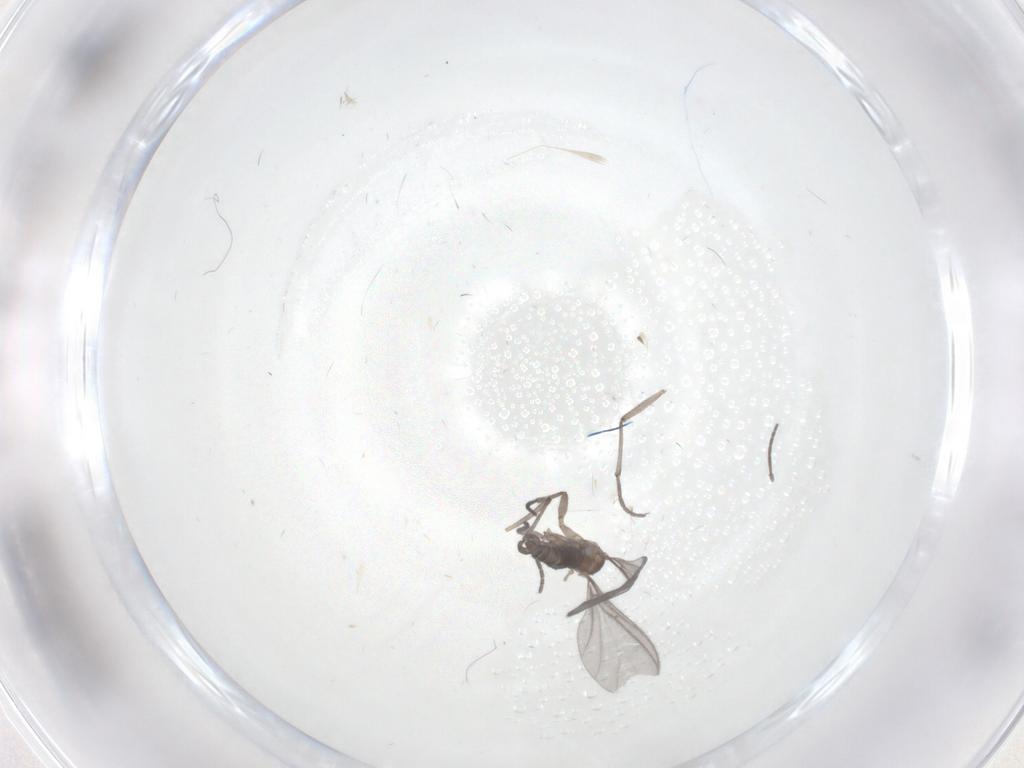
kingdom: Animalia
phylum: Arthropoda
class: Insecta
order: Diptera
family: Sciaridae
